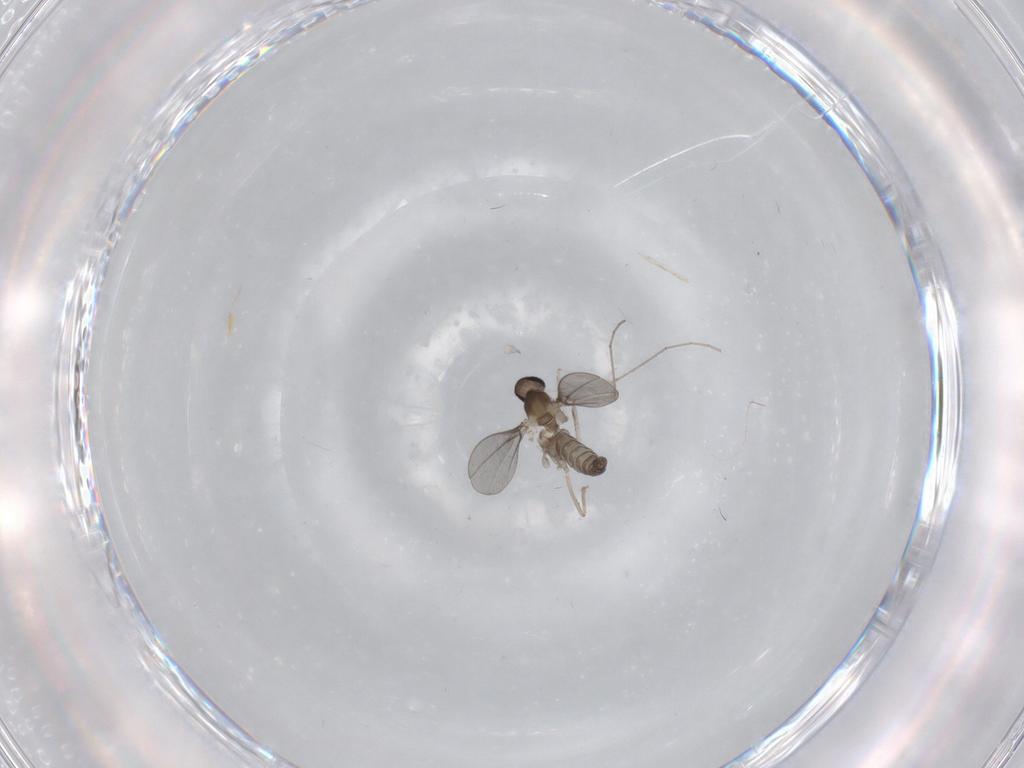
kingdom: Animalia
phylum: Arthropoda
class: Insecta
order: Diptera
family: Cecidomyiidae
